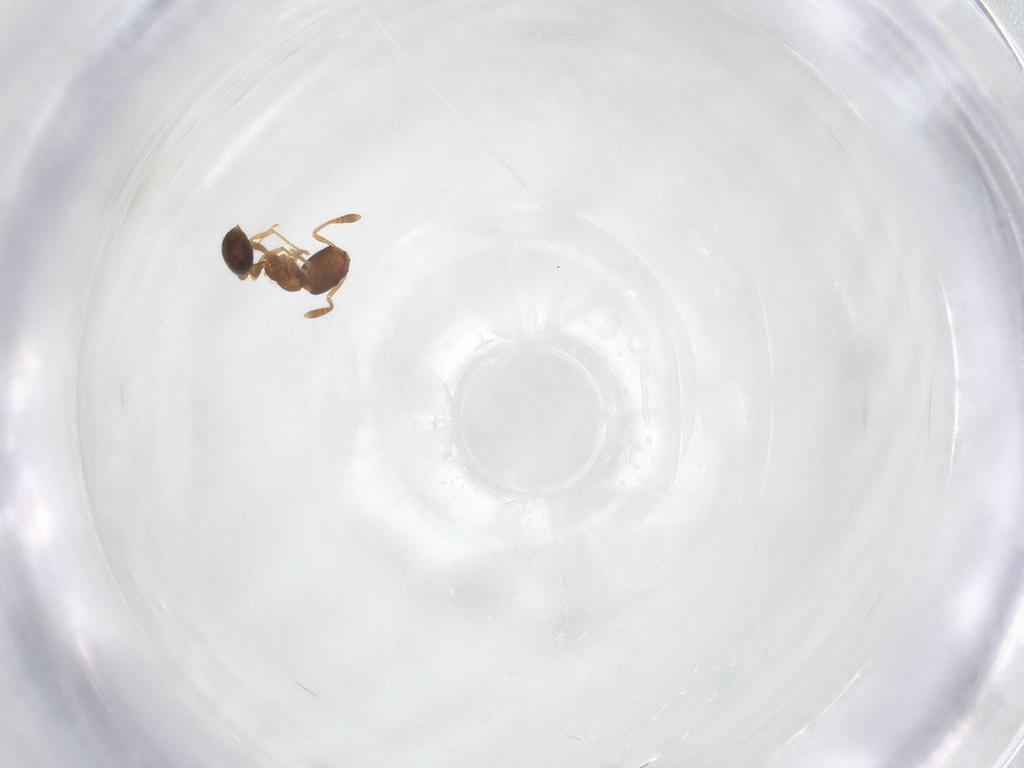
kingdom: Animalia
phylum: Arthropoda
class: Insecta
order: Hymenoptera
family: Formicidae
